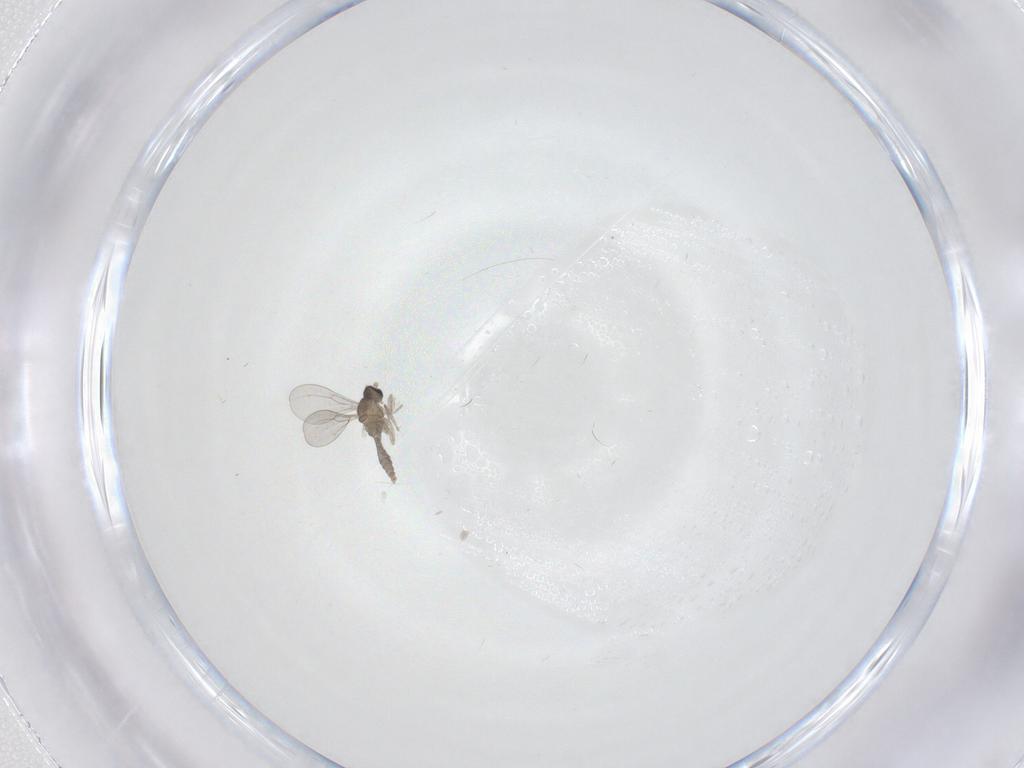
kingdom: Animalia
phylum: Arthropoda
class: Insecta
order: Diptera
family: Cecidomyiidae
